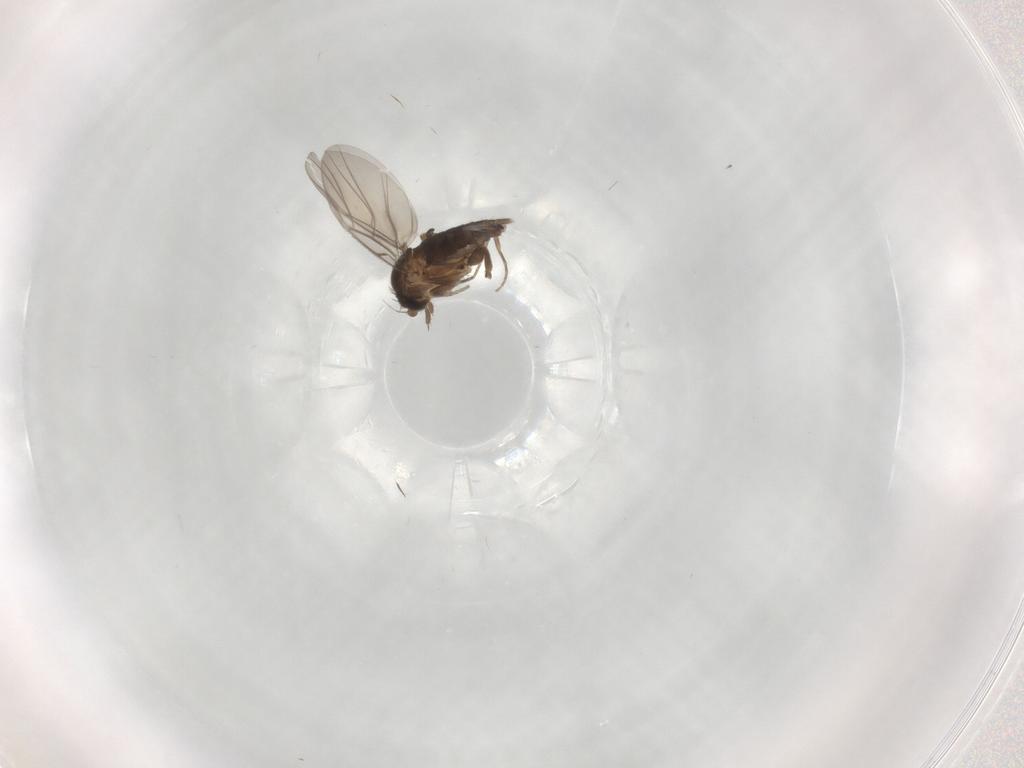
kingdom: Animalia
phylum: Arthropoda
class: Insecta
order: Diptera
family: Phoridae
